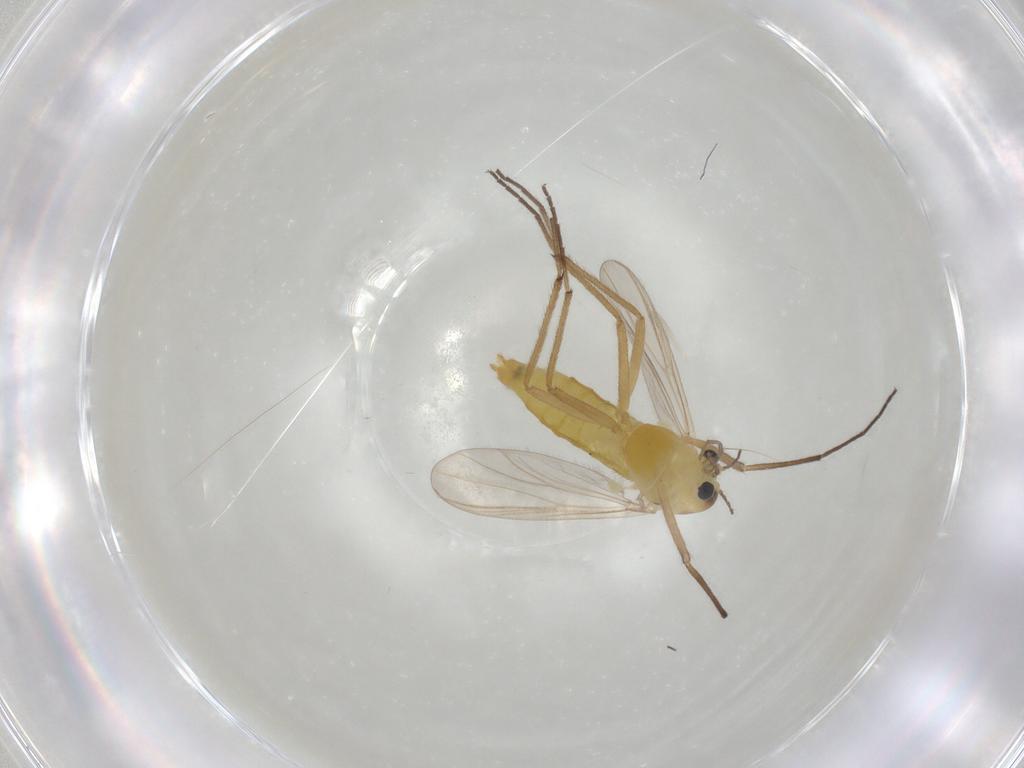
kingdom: Animalia
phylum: Arthropoda
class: Insecta
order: Diptera
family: Chironomidae
